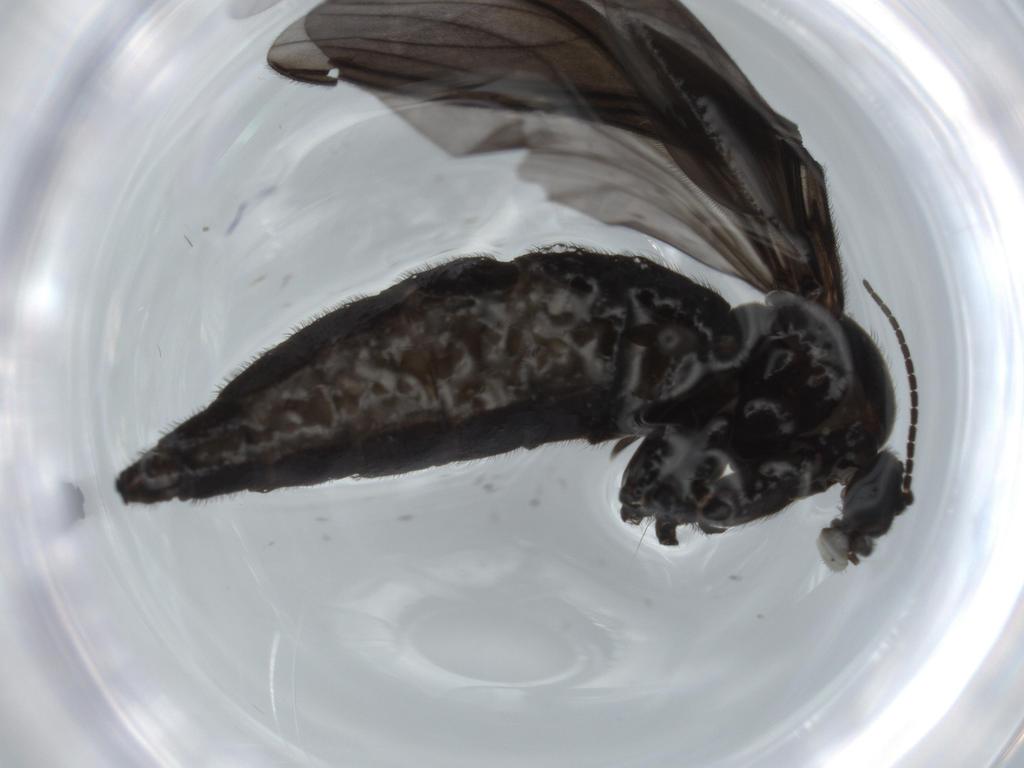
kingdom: Animalia
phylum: Arthropoda
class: Insecta
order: Diptera
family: Sciaridae
